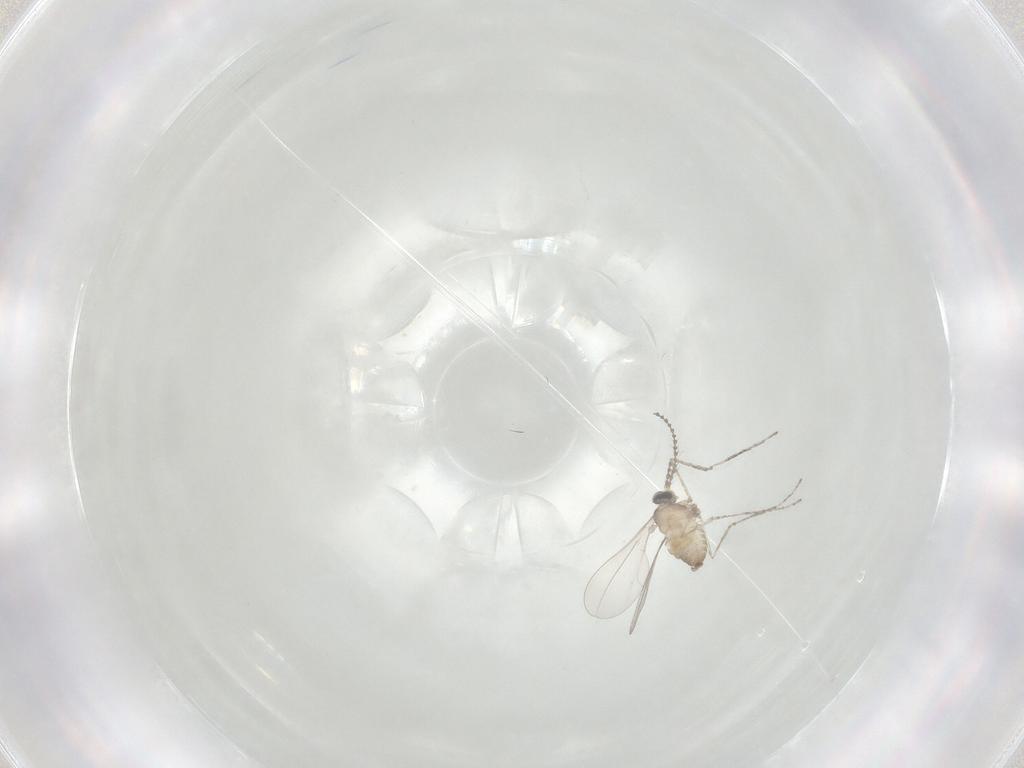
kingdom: Animalia
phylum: Arthropoda
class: Insecta
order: Diptera
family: Cecidomyiidae
